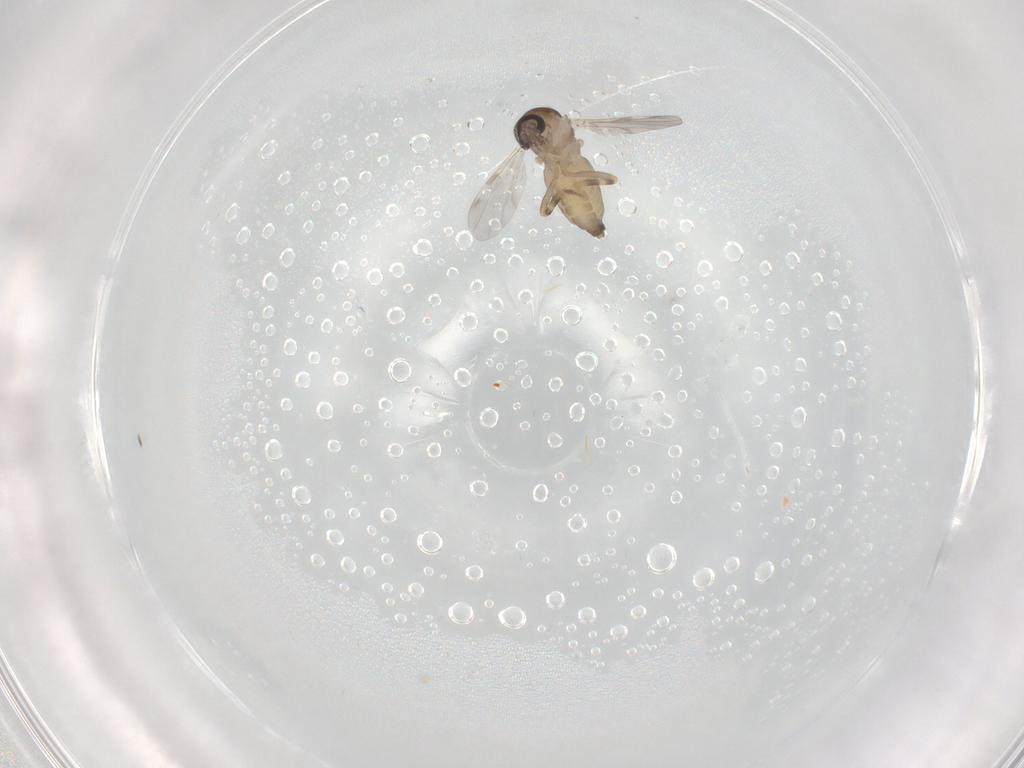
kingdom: Animalia
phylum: Arthropoda
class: Insecta
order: Diptera
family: Ceratopogonidae
